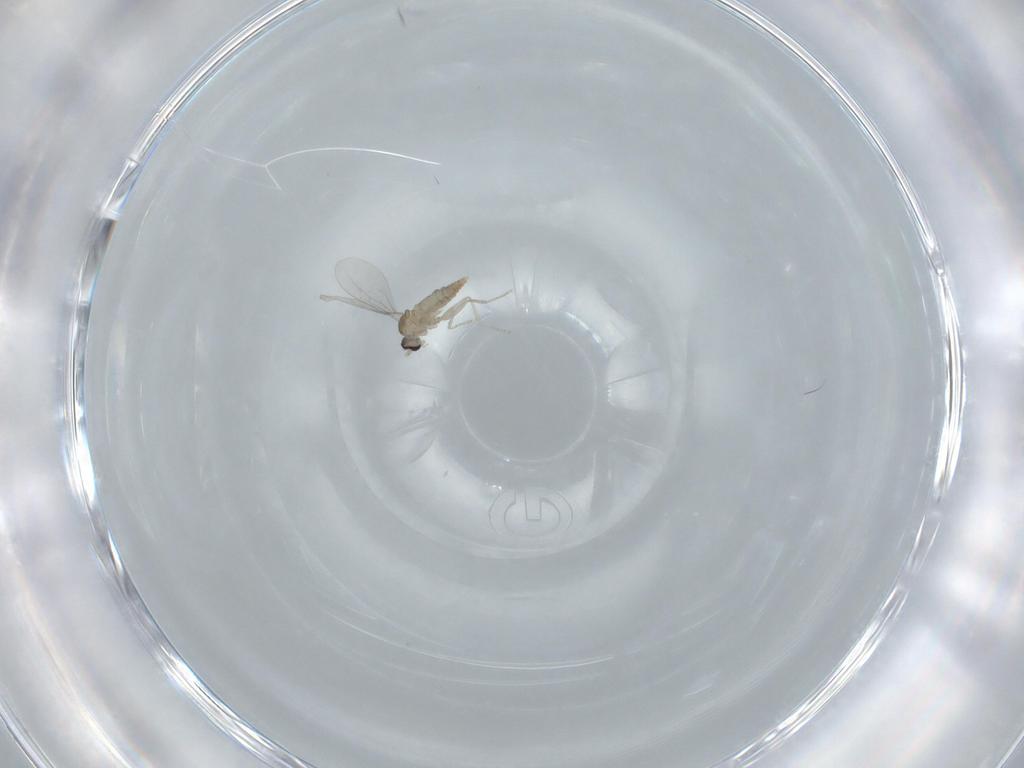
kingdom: Animalia
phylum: Arthropoda
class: Insecta
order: Diptera
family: Cecidomyiidae
